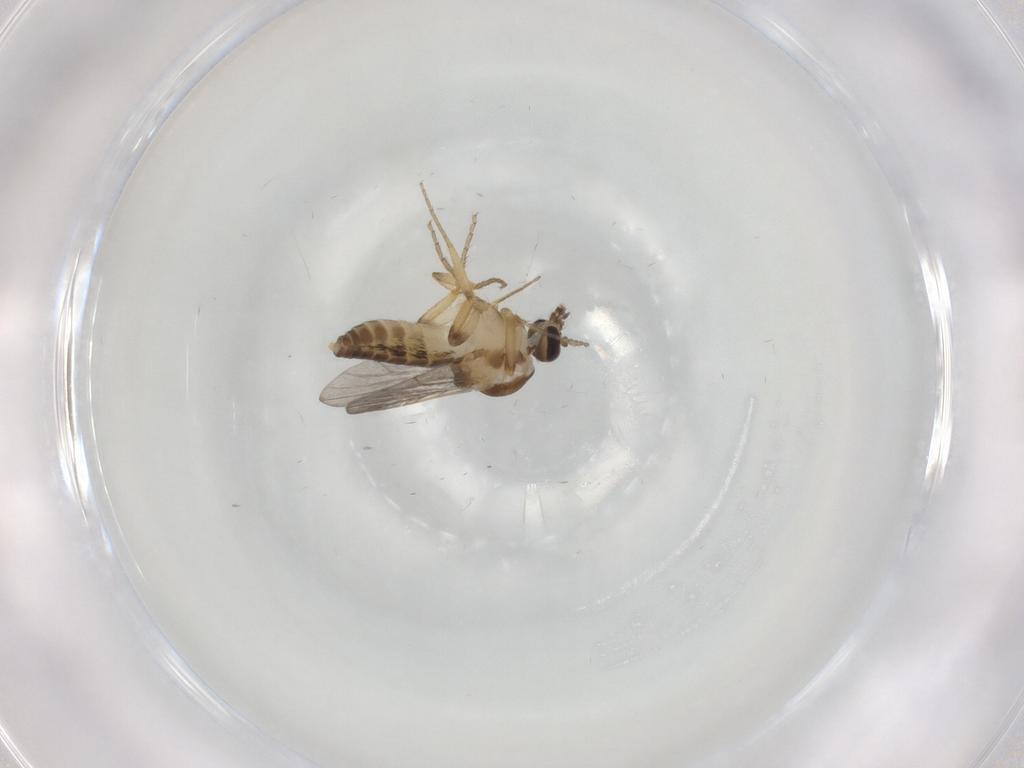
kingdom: Animalia
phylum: Arthropoda
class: Insecta
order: Diptera
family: Ceratopogonidae
